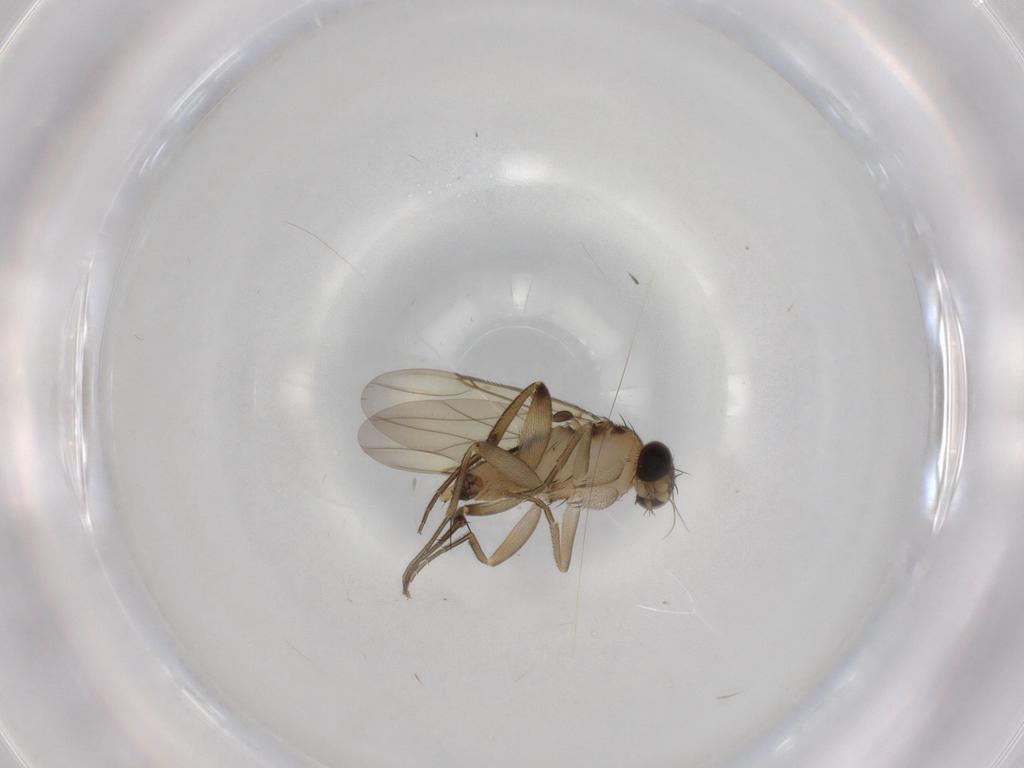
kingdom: Animalia
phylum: Arthropoda
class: Insecta
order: Diptera
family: Phoridae
